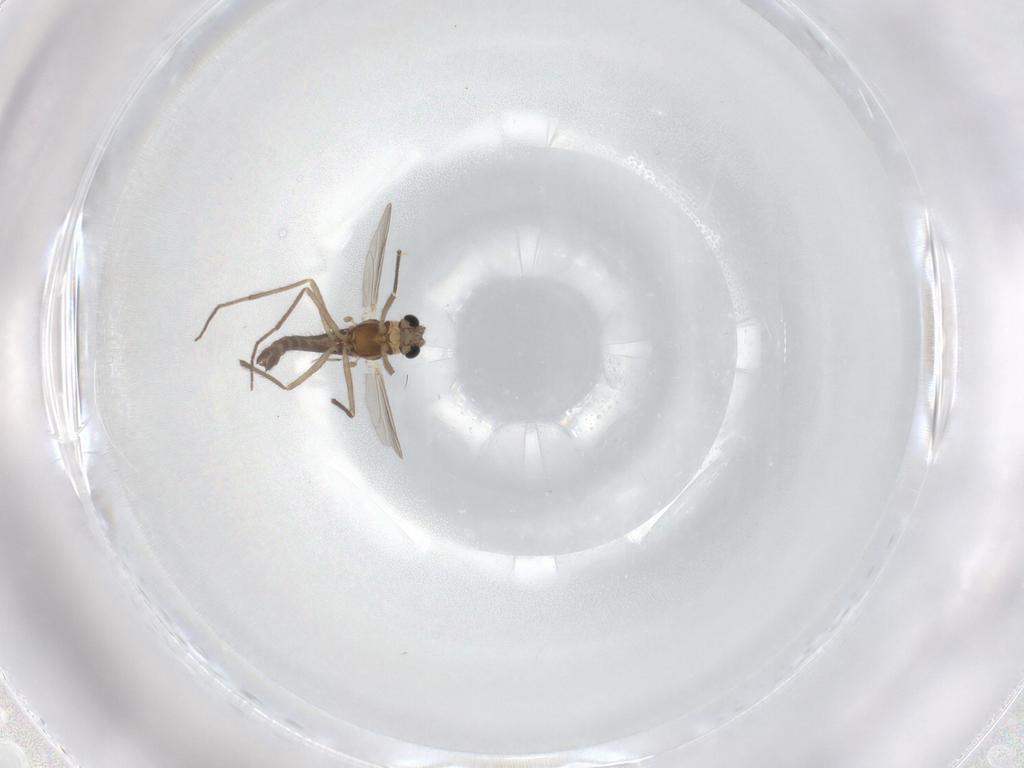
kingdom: Animalia
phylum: Arthropoda
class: Insecta
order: Diptera
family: Chironomidae
